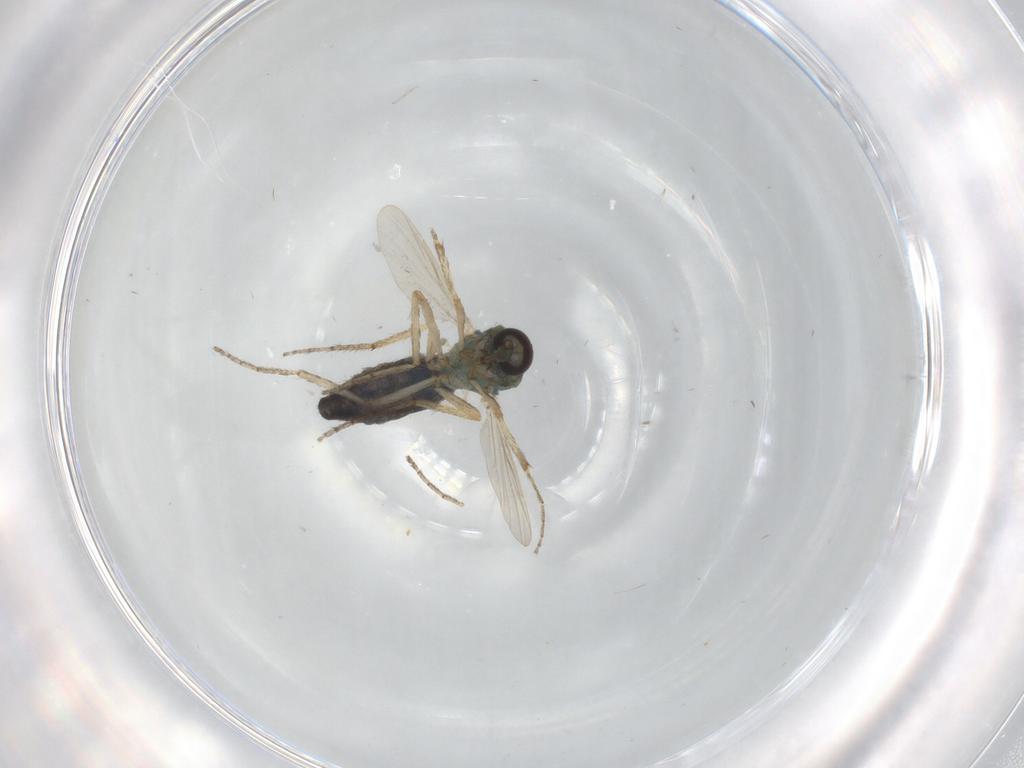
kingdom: Animalia
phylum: Arthropoda
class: Insecta
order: Diptera
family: Ceratopogonidae
